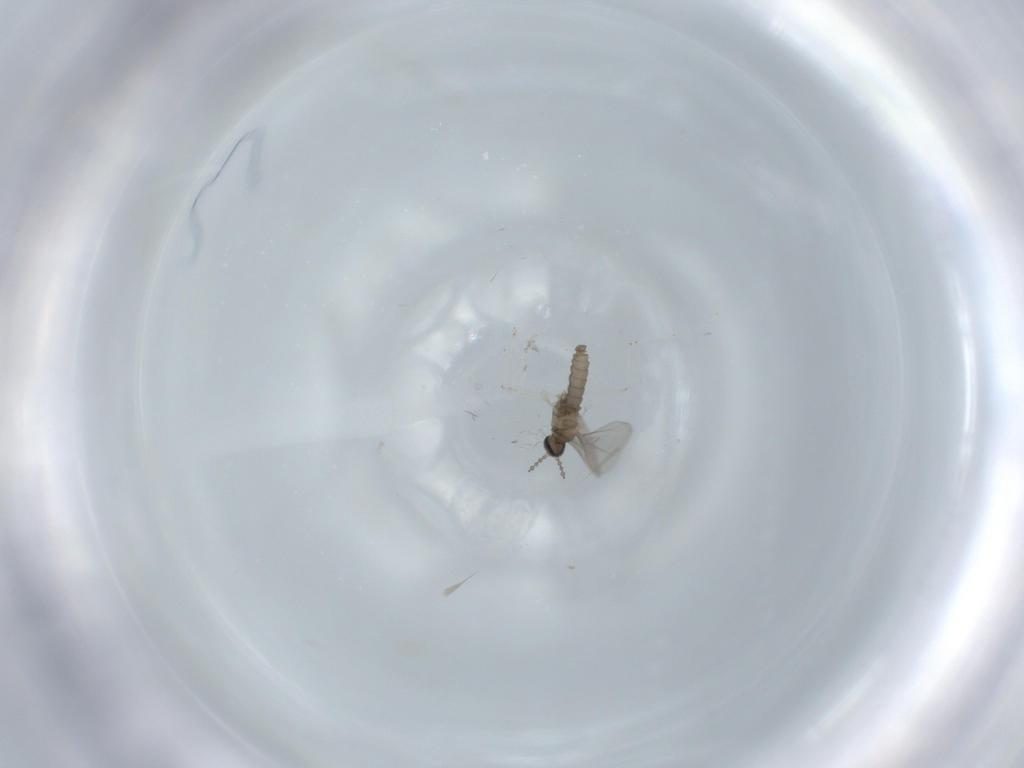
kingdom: Animalia
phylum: Arthropoda
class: Insecta
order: Diptera
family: Cecidomyiidae
